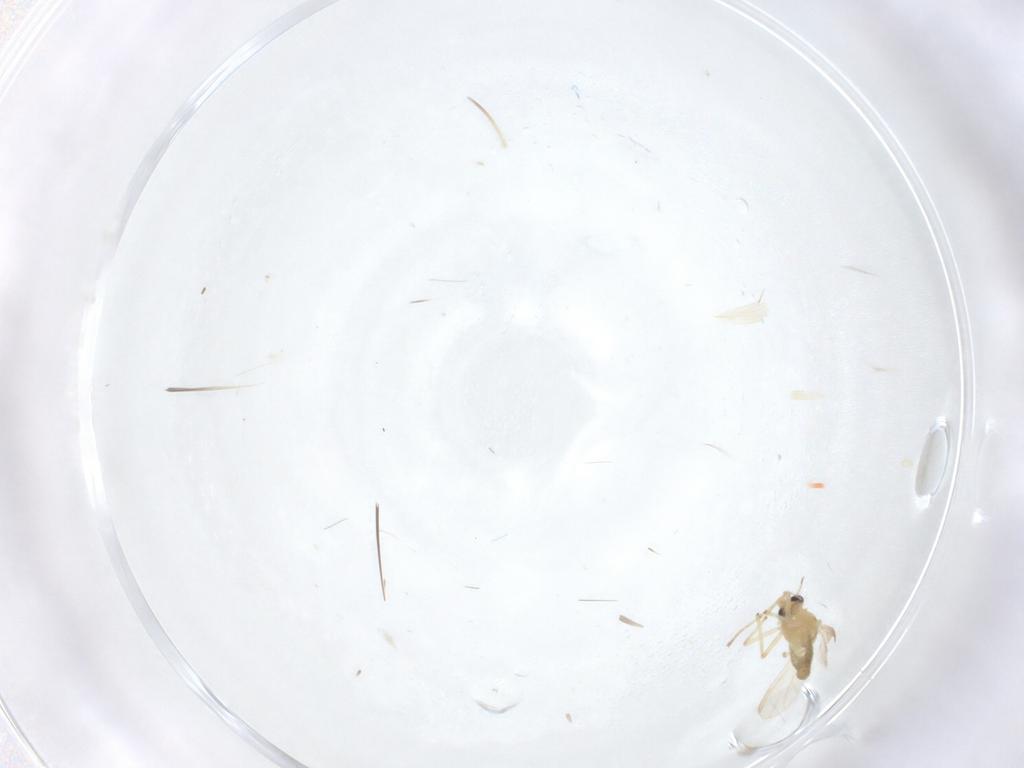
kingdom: Animalia
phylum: Arthropoda
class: Insecta
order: Diptera
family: Chironomidae
